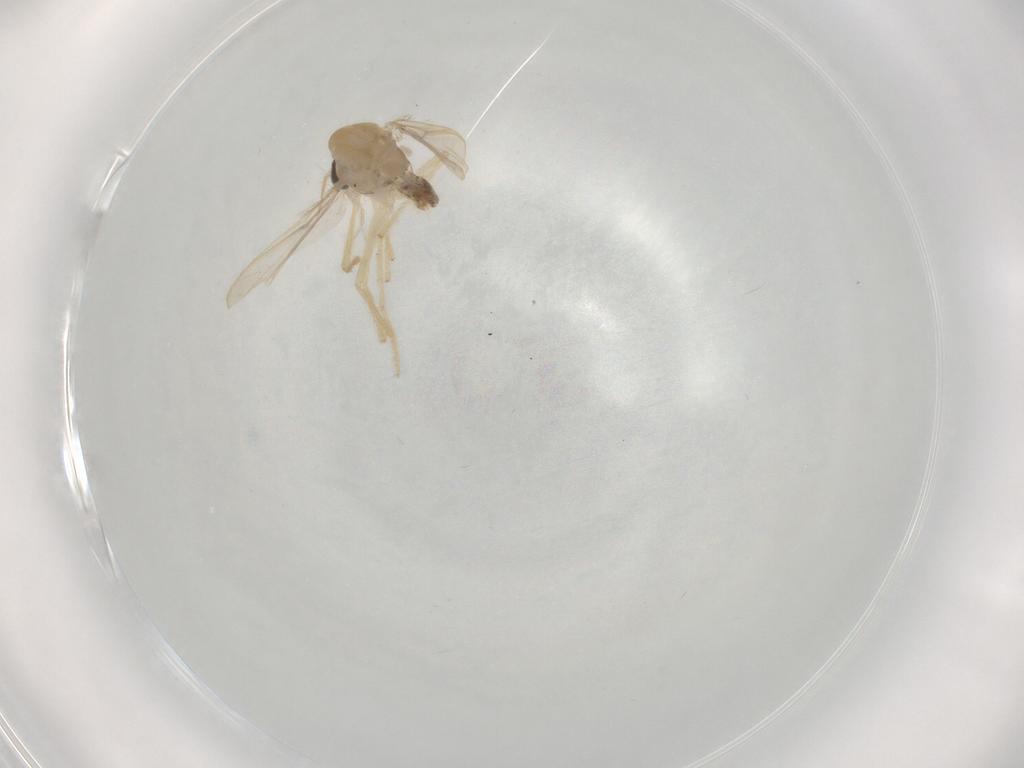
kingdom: Animalia
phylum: Arthropoda
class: Insecta
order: Diptera
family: Chironomidae
